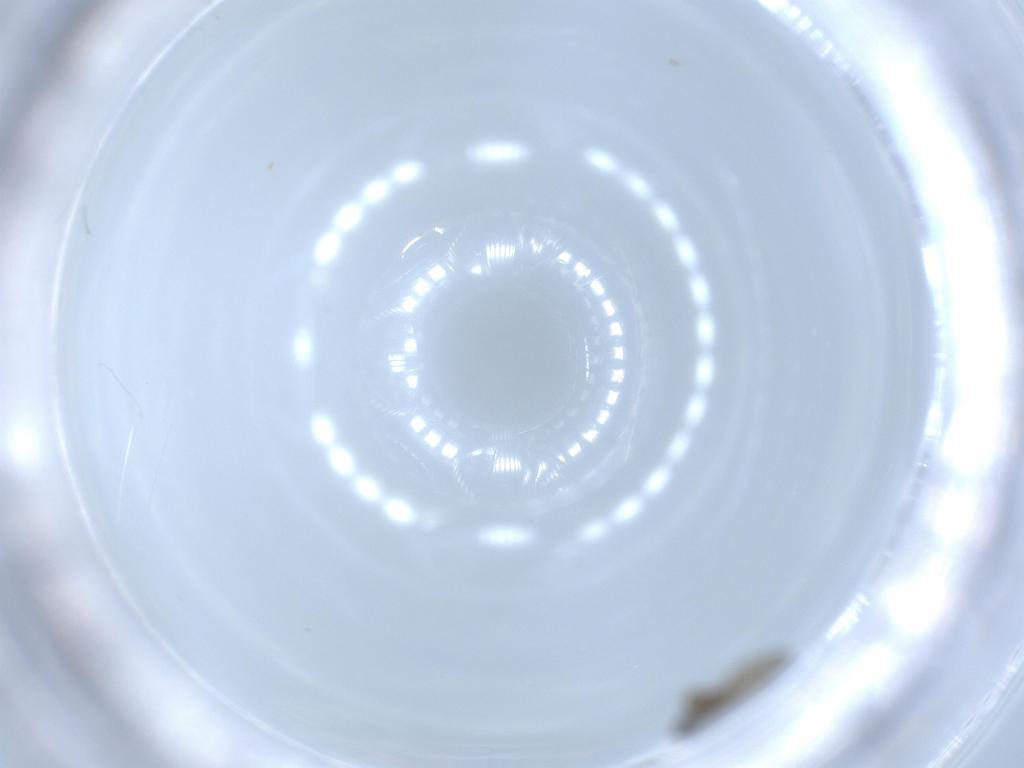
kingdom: Animalia
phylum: Arthropoda
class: Insecta
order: Diptera
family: Cecidomyiidae
